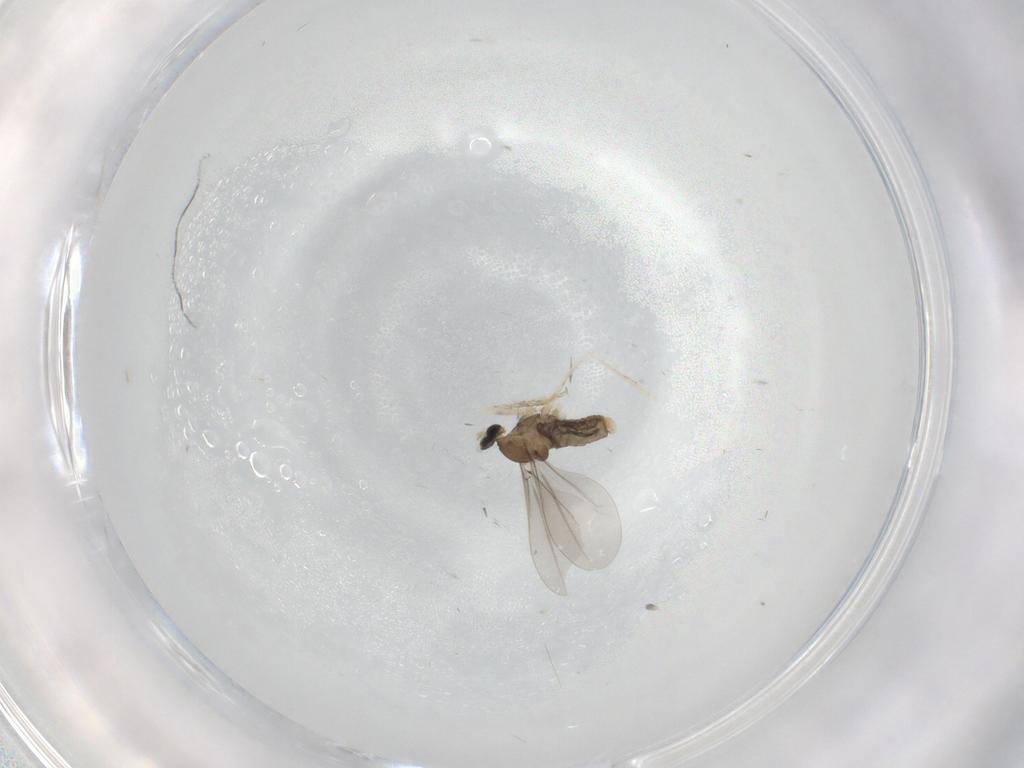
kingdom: Animalia
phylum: Arthropoda
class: Insecta
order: Diptera
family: Cecidomyiidae
